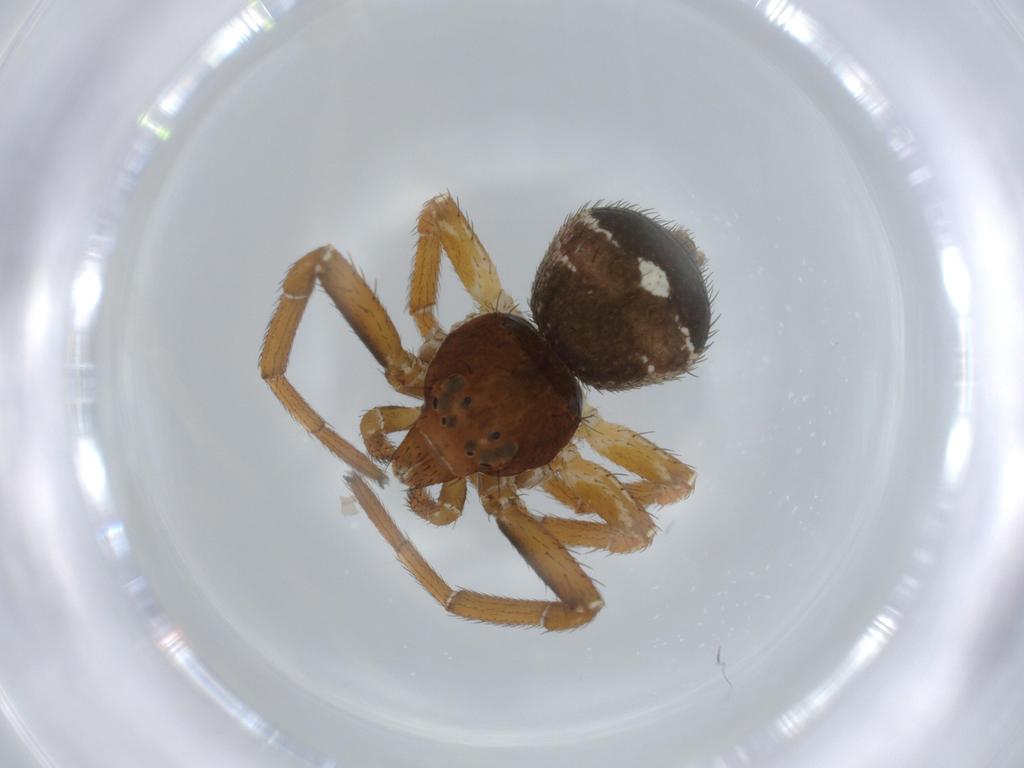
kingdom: Animalia
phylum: Arthropoda
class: Arachnida
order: Araneae
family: Thomisidae
